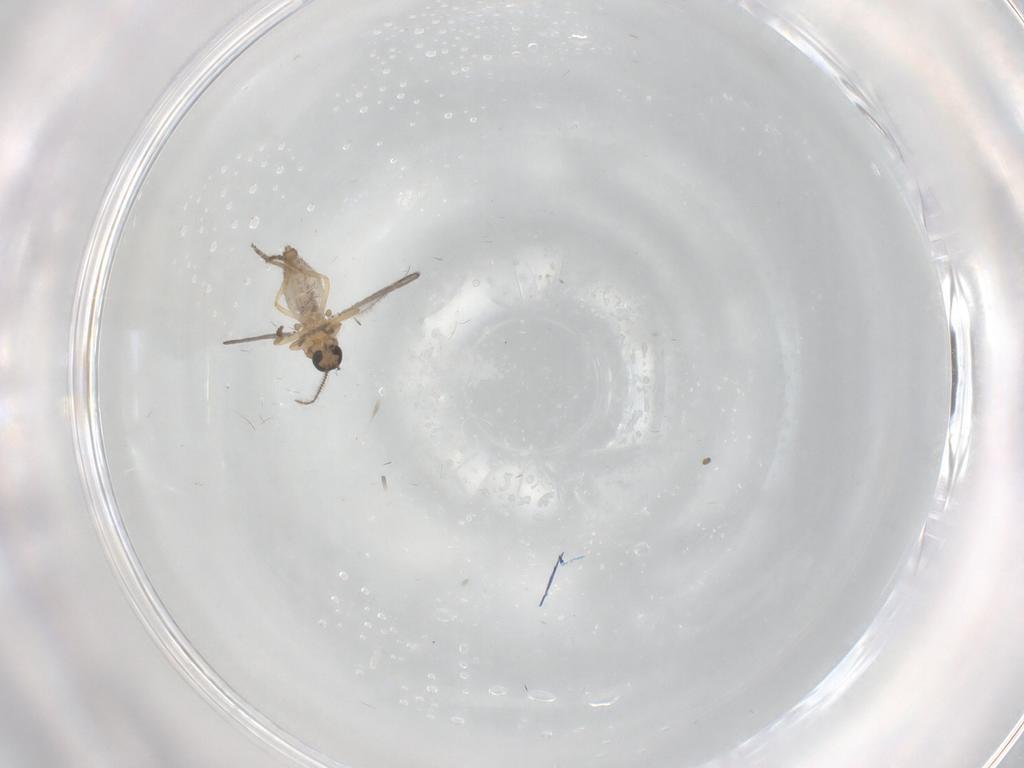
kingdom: Animalia
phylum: Arthropoda
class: Insecta
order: Diptera
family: Ceratopogonidae
